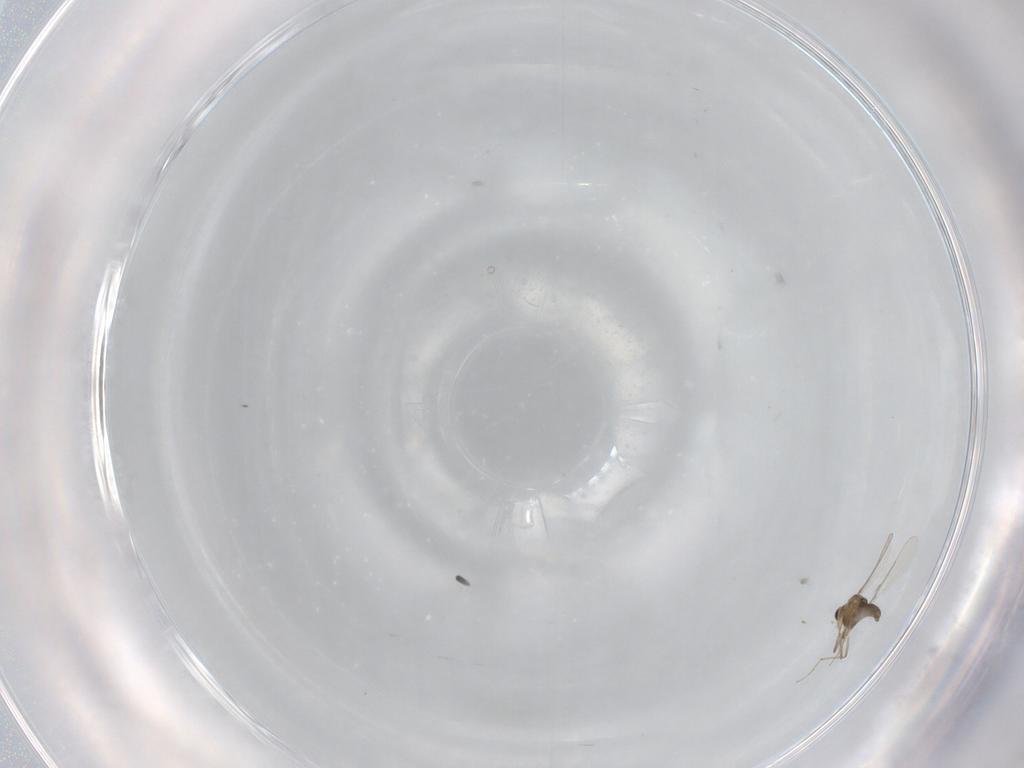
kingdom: Animalia
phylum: Arthropoda
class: Insecta
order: Diptera
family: Chironomidae
